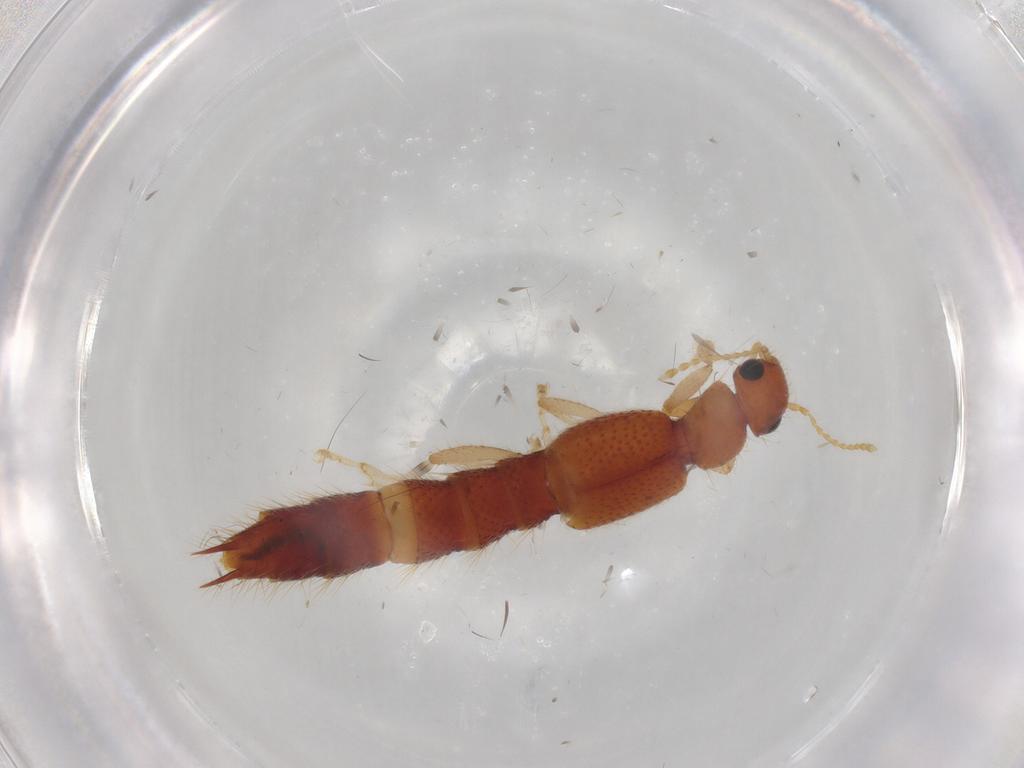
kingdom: Animalia
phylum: Arthropoda
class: Insecta
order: Coleoptera
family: Staphylinidae
